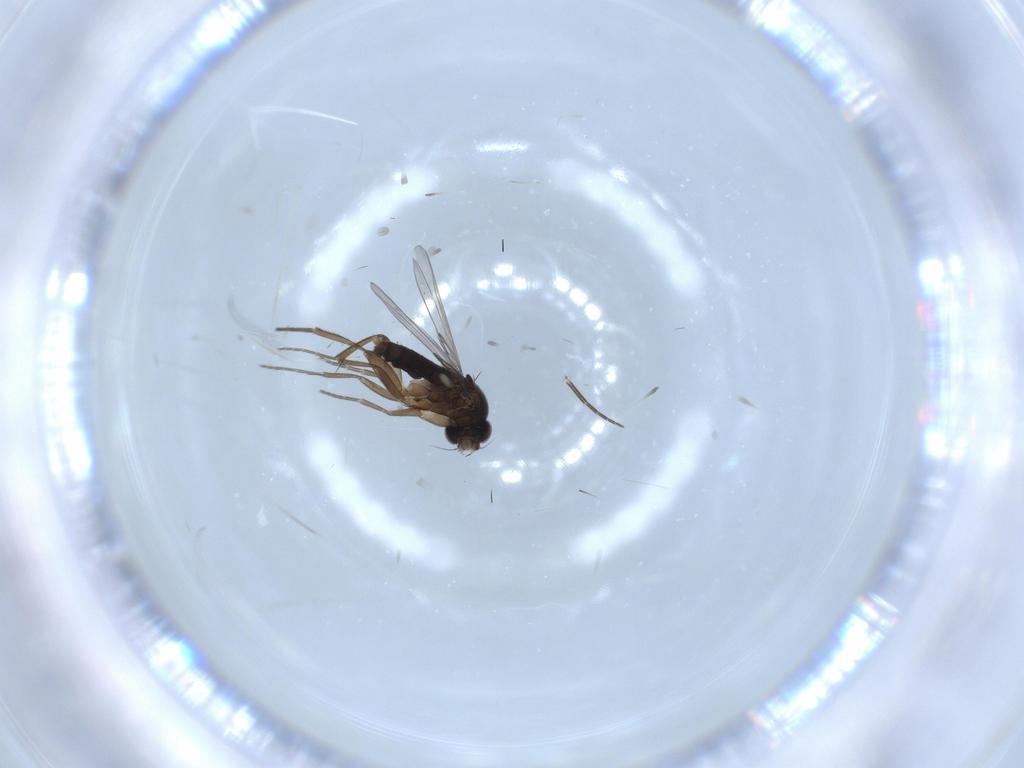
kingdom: Animalia
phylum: Arthropoda
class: Insecta
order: Diptera
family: Phoridae
